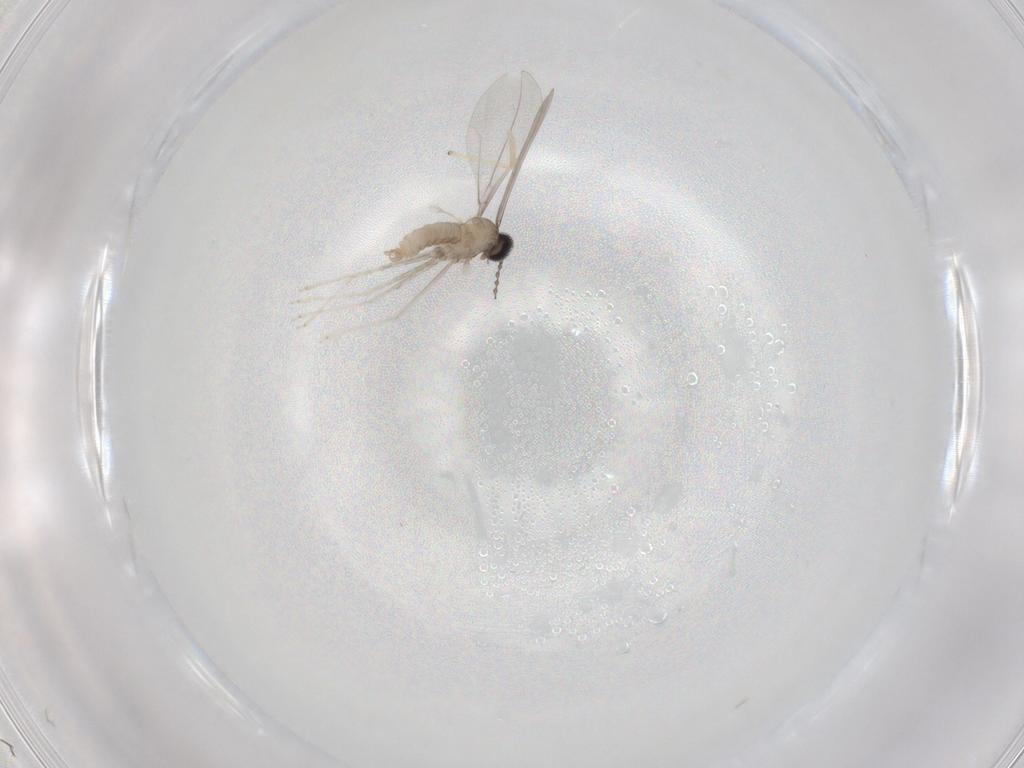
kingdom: Animalia
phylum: Arthropoda
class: Insecta
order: Diptera
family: Cecidomyiidae
